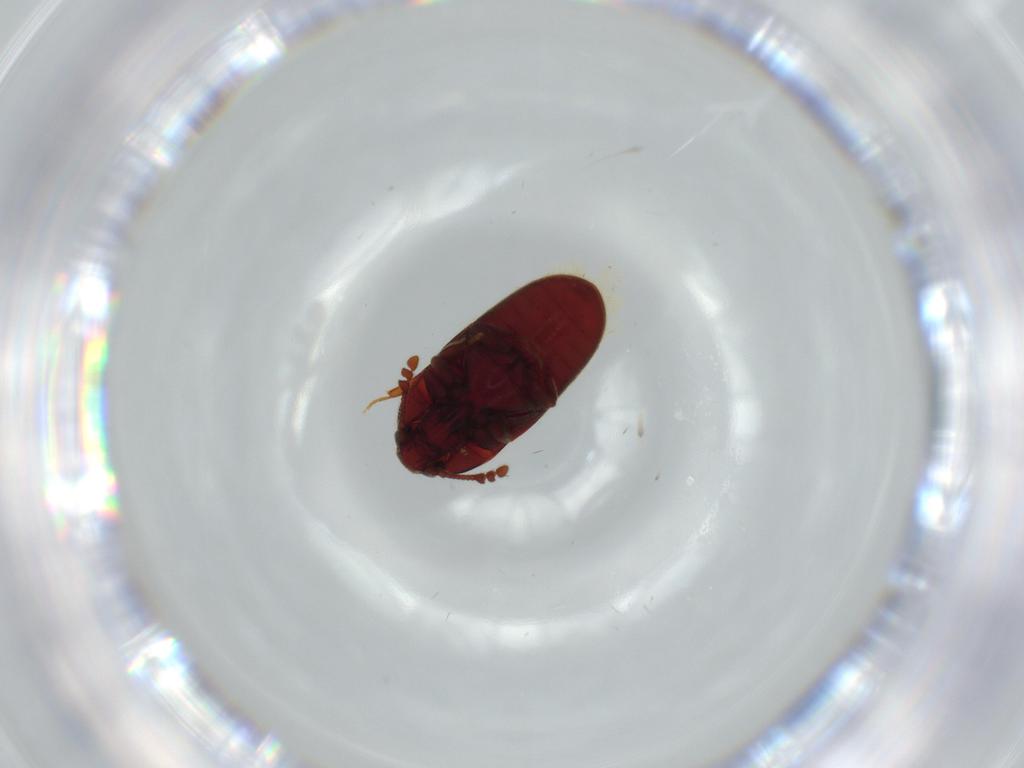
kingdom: Animalia
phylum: Arthropoda
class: Insecta
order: Coleoptera
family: Throscidae
